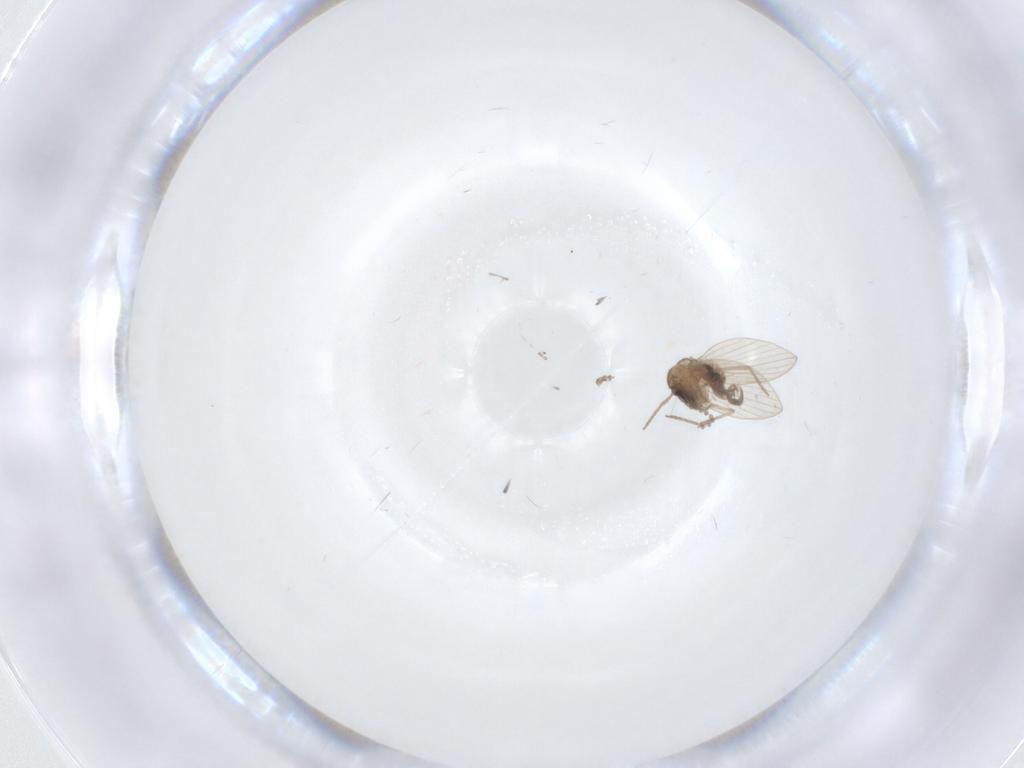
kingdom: Animalia
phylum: Arthropoda
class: Insecta
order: Diptera
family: Psychodidae
